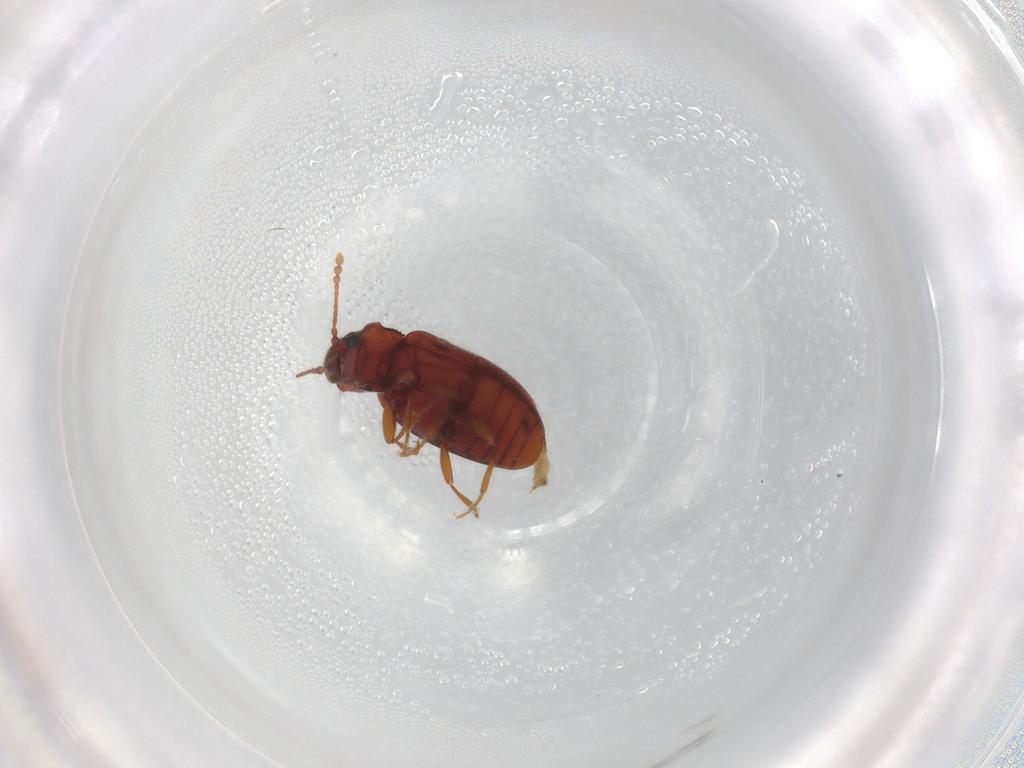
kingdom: Animalia
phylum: Arthropoda
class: Insecta
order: Coleoptera
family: Cryptophagidae
